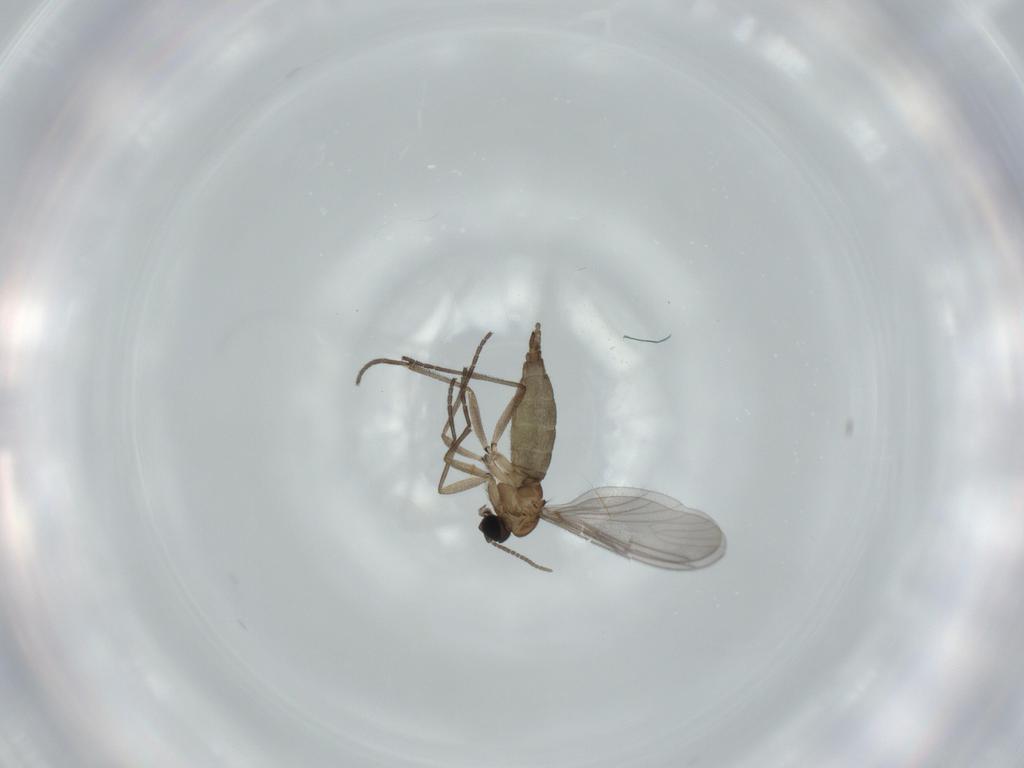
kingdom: Animalia
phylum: Arthropoda
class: Insecta
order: Diptera
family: Sciaridae
